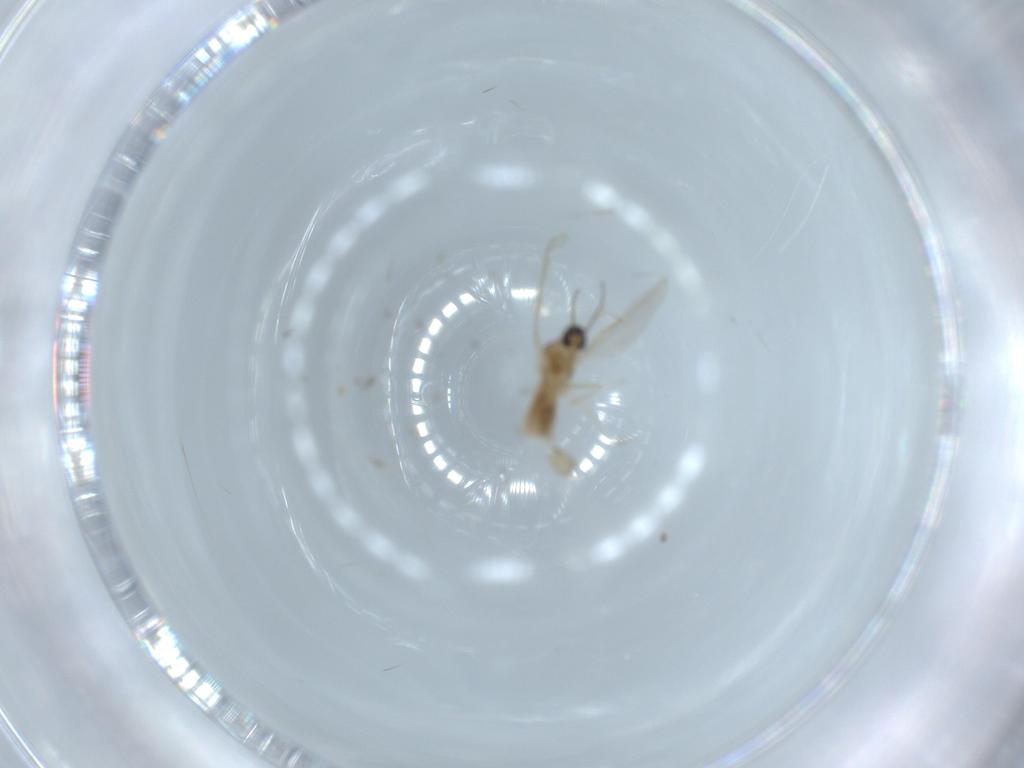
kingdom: Animalia
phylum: Arthropoda
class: Insecta
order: Diptera
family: Cecidomyiidae
